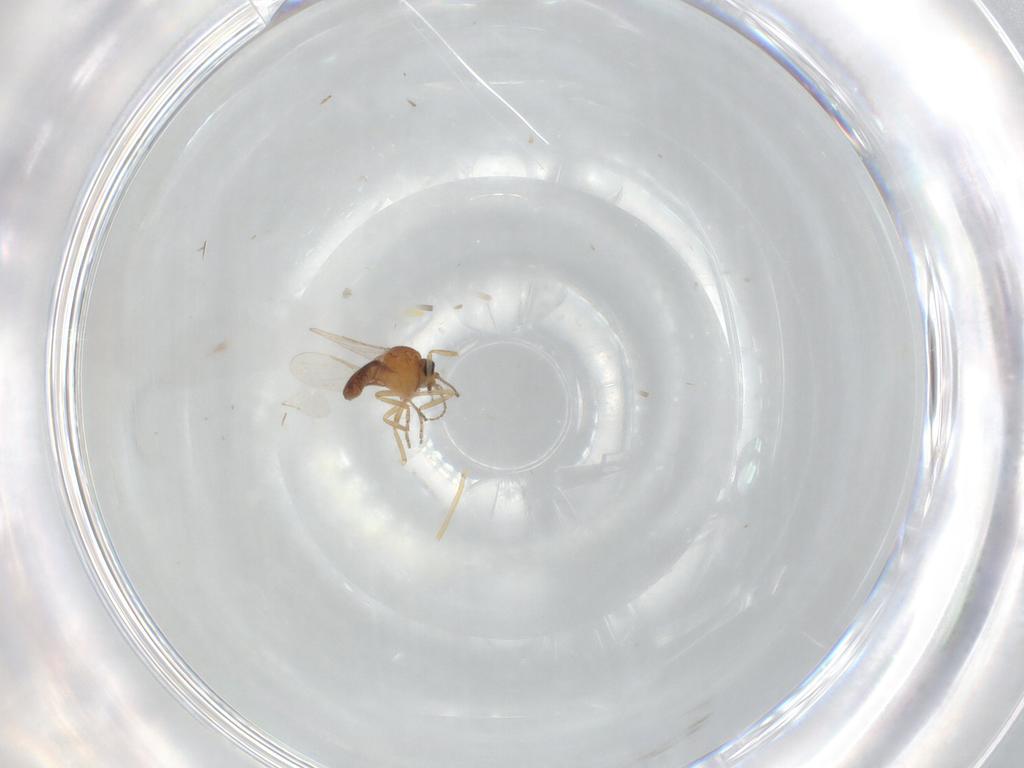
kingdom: Animalia
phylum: Arthropoda
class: Insecta
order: Diptera
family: Ceratopogonidae
